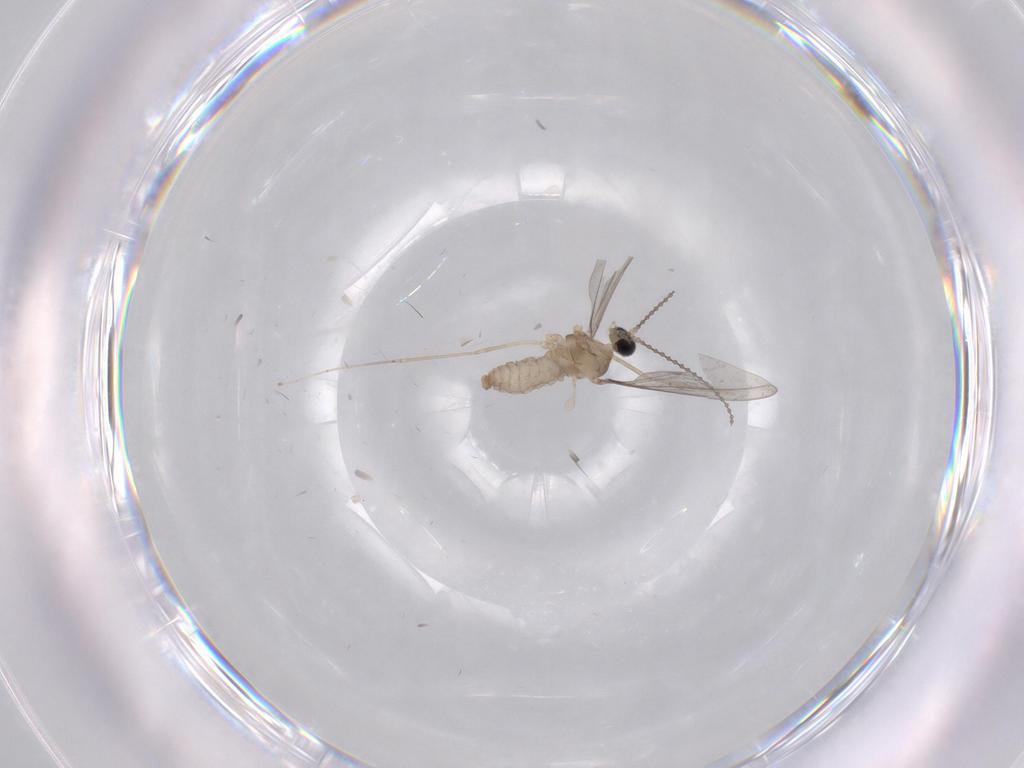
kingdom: Animalia
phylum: Arthropoda
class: Insecta
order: Diptera
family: Cecidomyiidae
